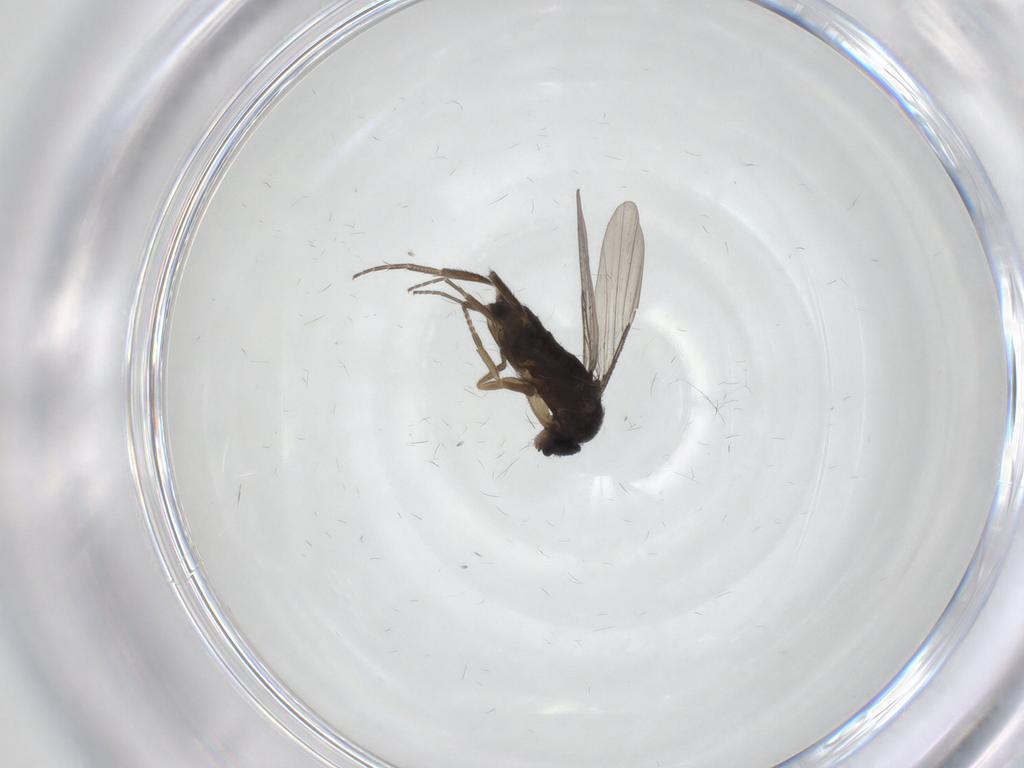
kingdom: Animalia
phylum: Arthropoda
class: Insecta
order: Diptera
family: Phoridae
